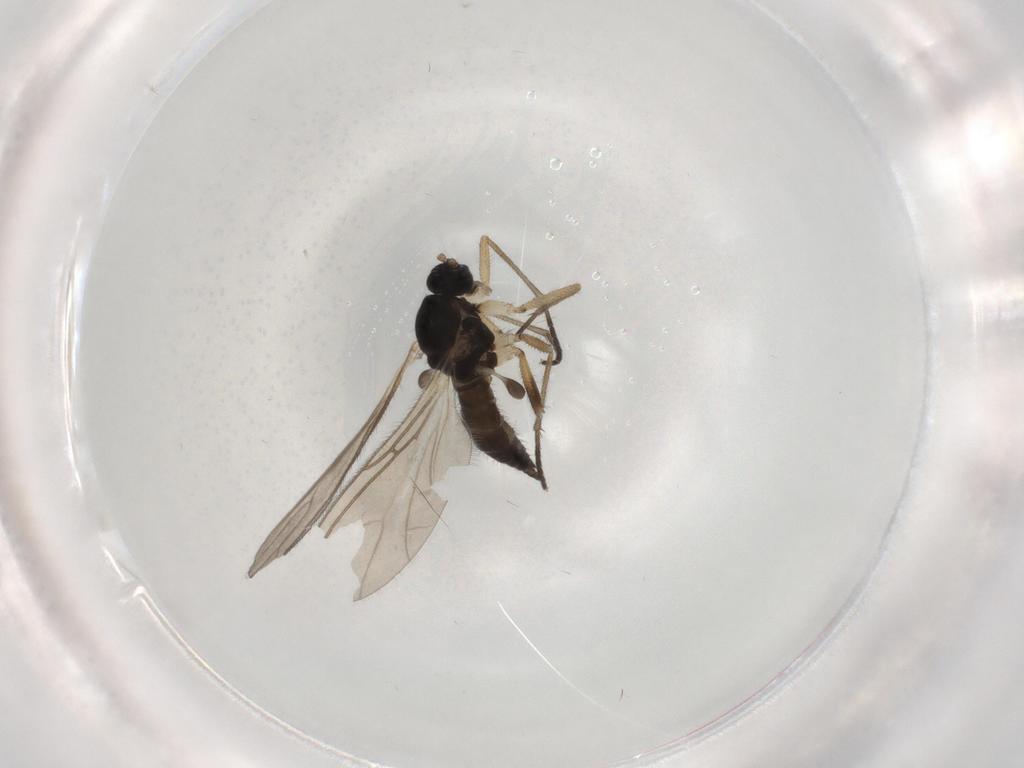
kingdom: Animalia
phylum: Arthropoda
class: Insecta
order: Diptera
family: Sciaridae
